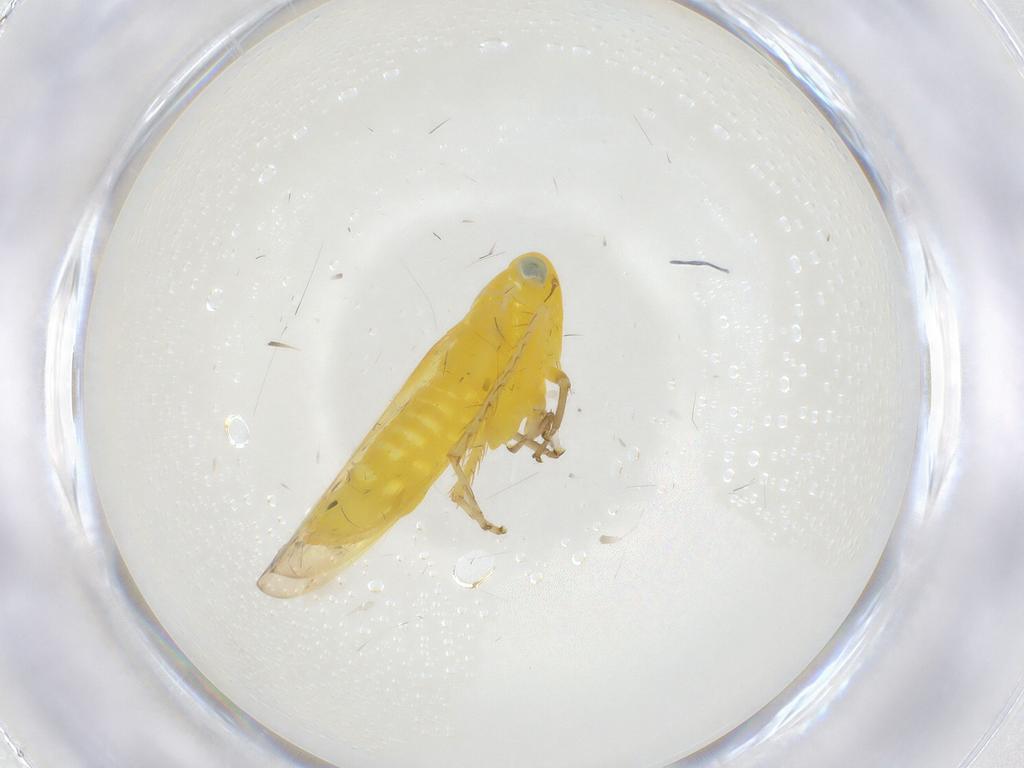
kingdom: Animalia
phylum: Arthropoda
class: Insecta
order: Hemiptera
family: Cicadellidae
